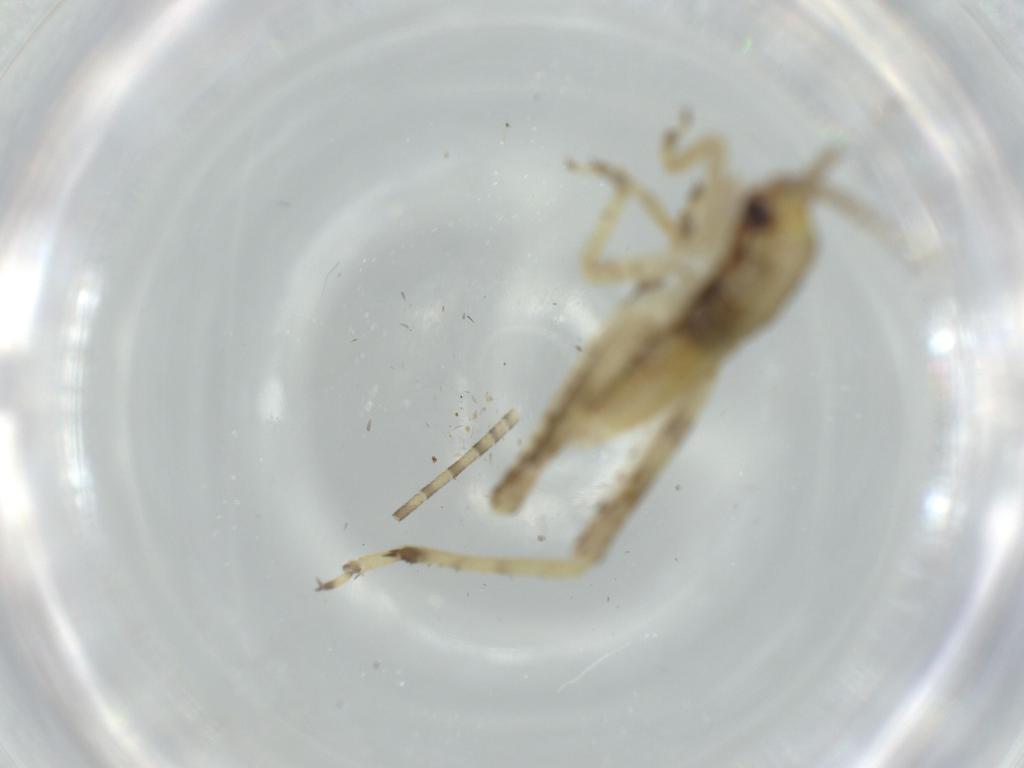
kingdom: Animalia
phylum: Arthropoda
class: Insecta
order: Orthoptera
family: Gryllidae
